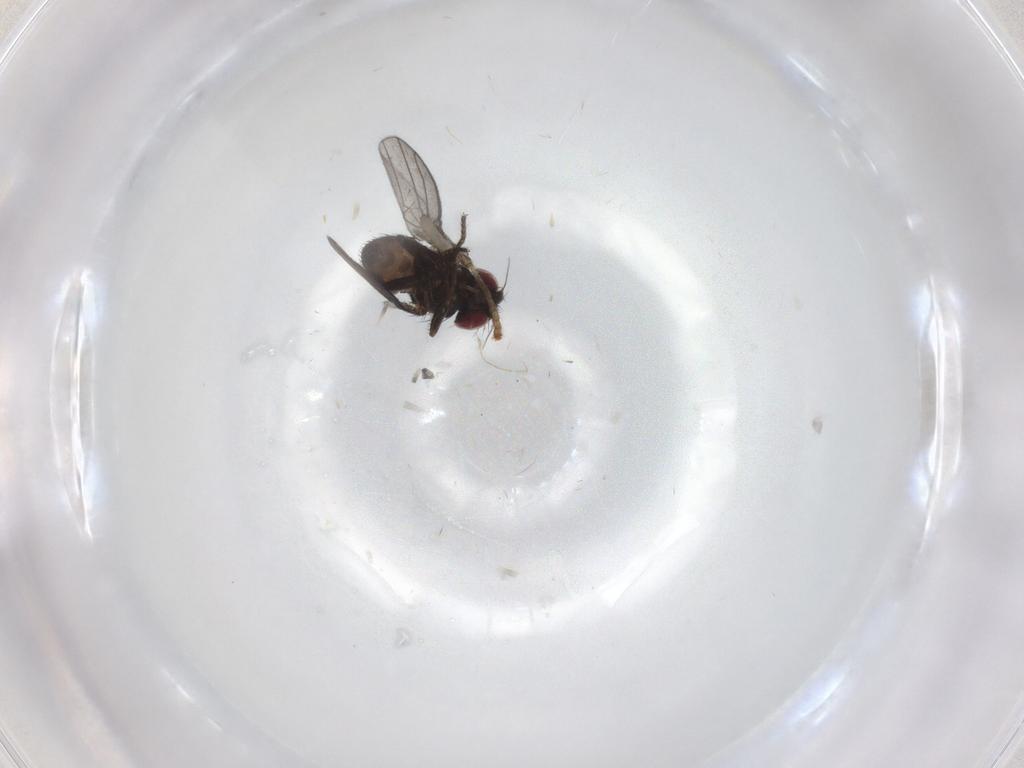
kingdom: Animalia
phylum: Arthropoda
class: Insecta
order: Diptera
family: Milichiidae
